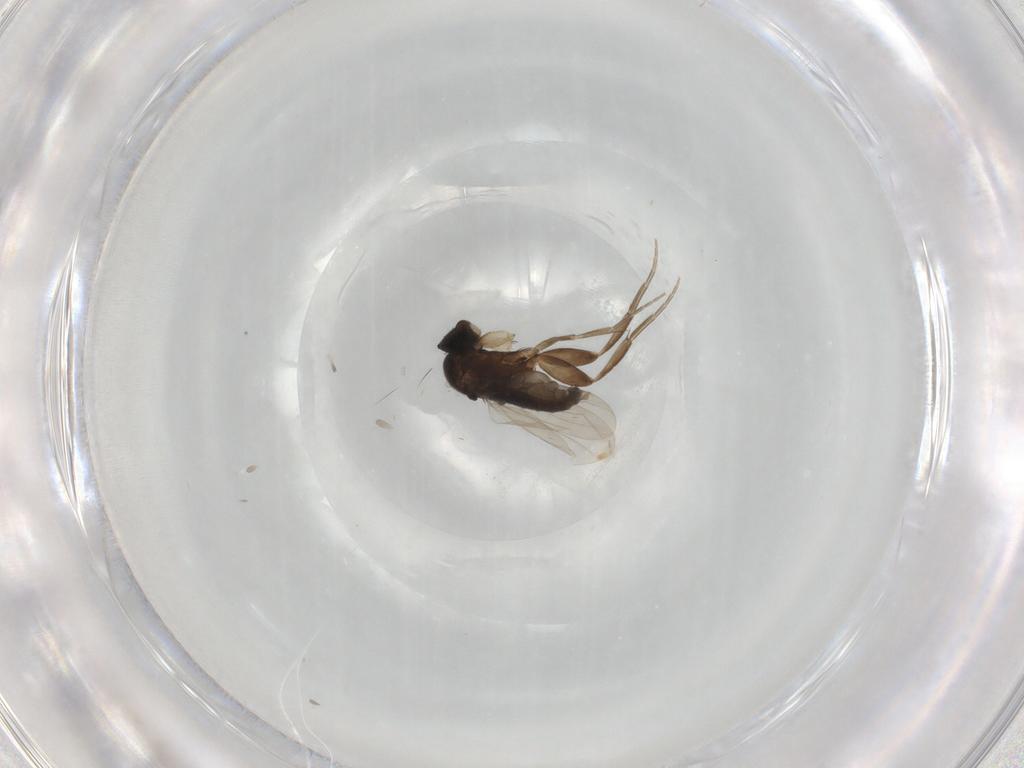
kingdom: Animalia
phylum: Arthropoda
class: Insecta
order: Diptera
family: Phoridae
